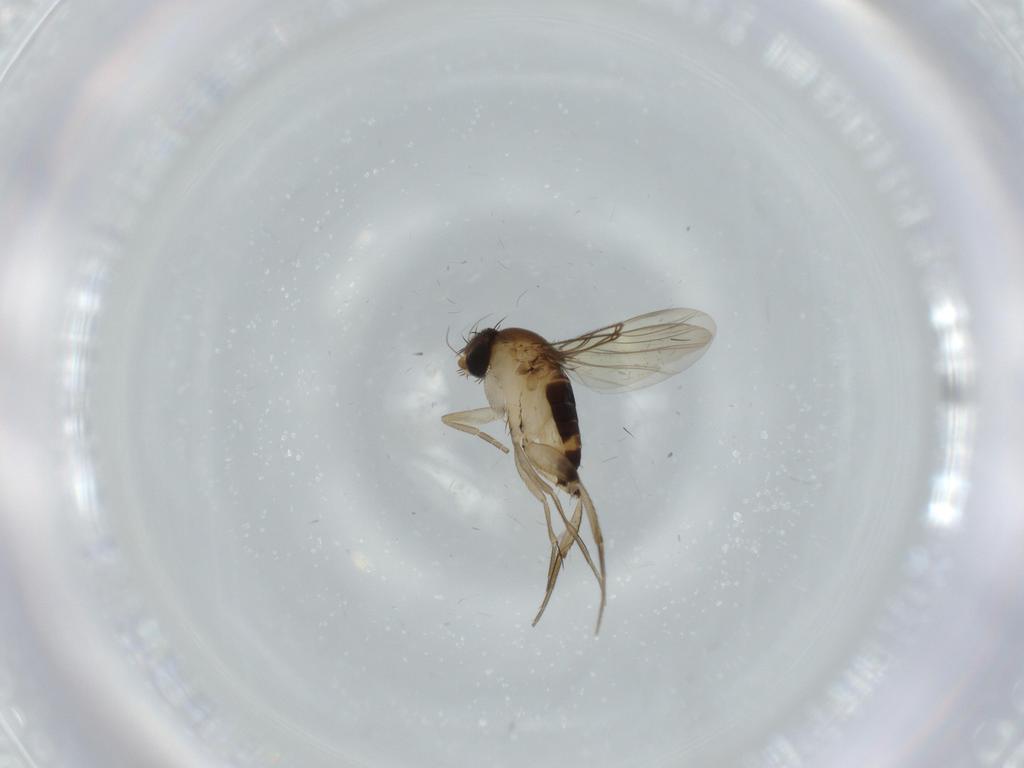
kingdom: Animalia
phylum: Arthropoda
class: Insecta
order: Diptera
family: Phoridae
